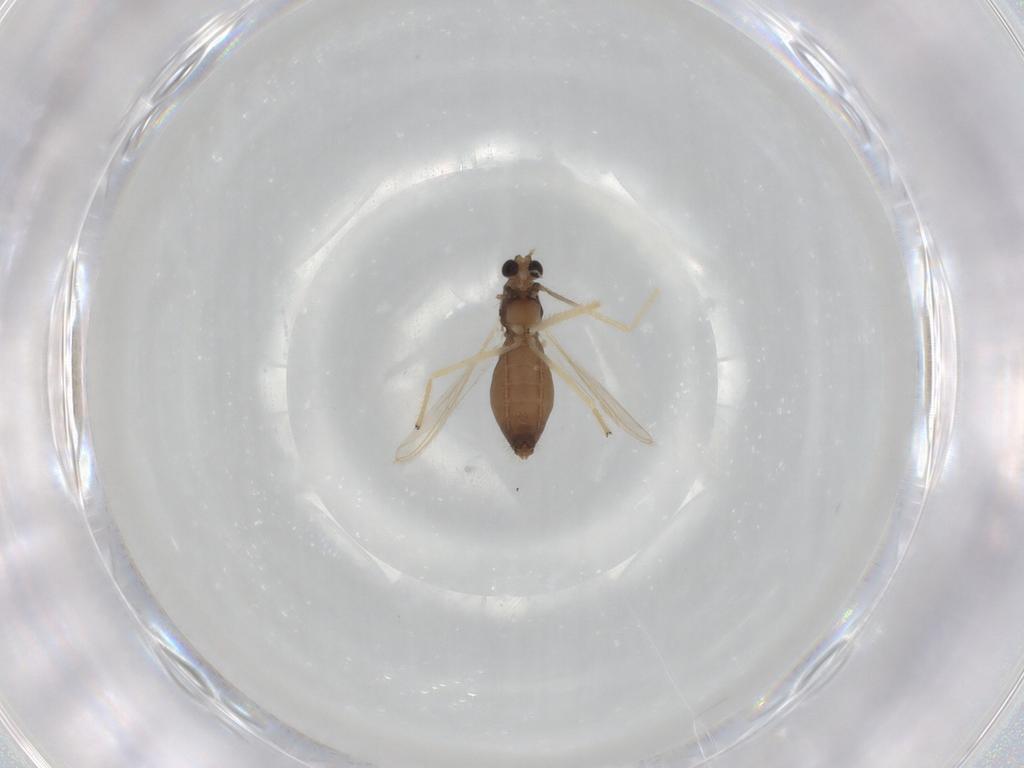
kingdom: Animalia
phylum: Arthropoda
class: Insecta
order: Diptera
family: Chironomidae
